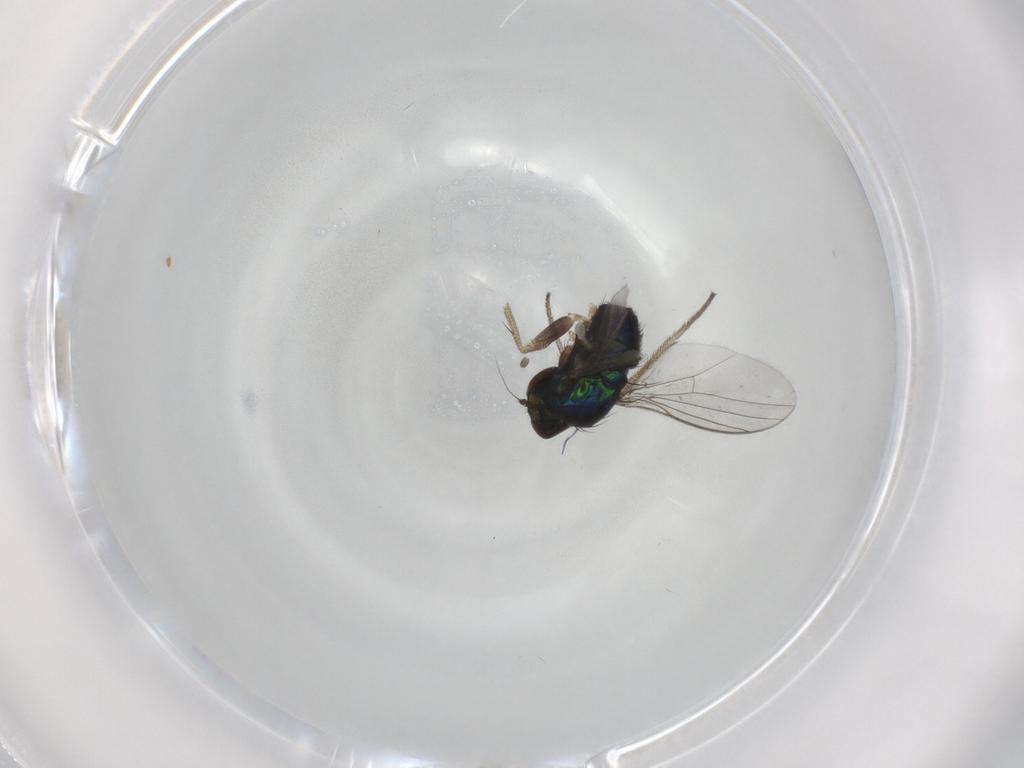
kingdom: Animalia
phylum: Arthropoda
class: Insecta
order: Diptera
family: Psychodidae
